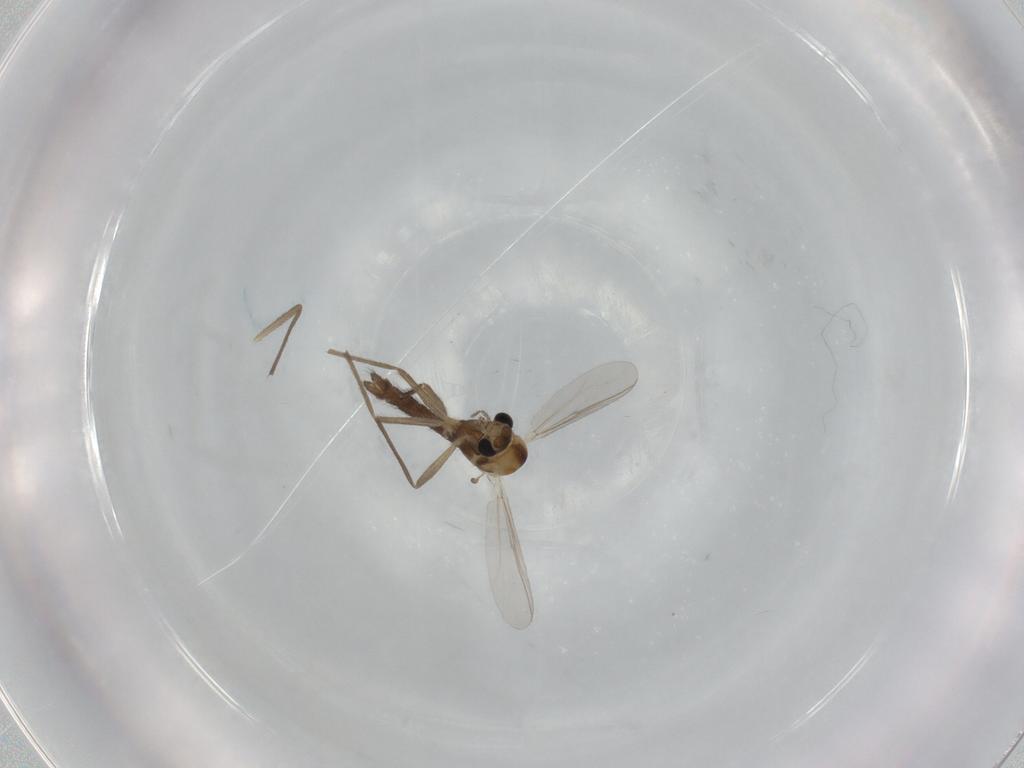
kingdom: Animalia
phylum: Arthropoda
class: Insecta
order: Diptera
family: Chironomidae
